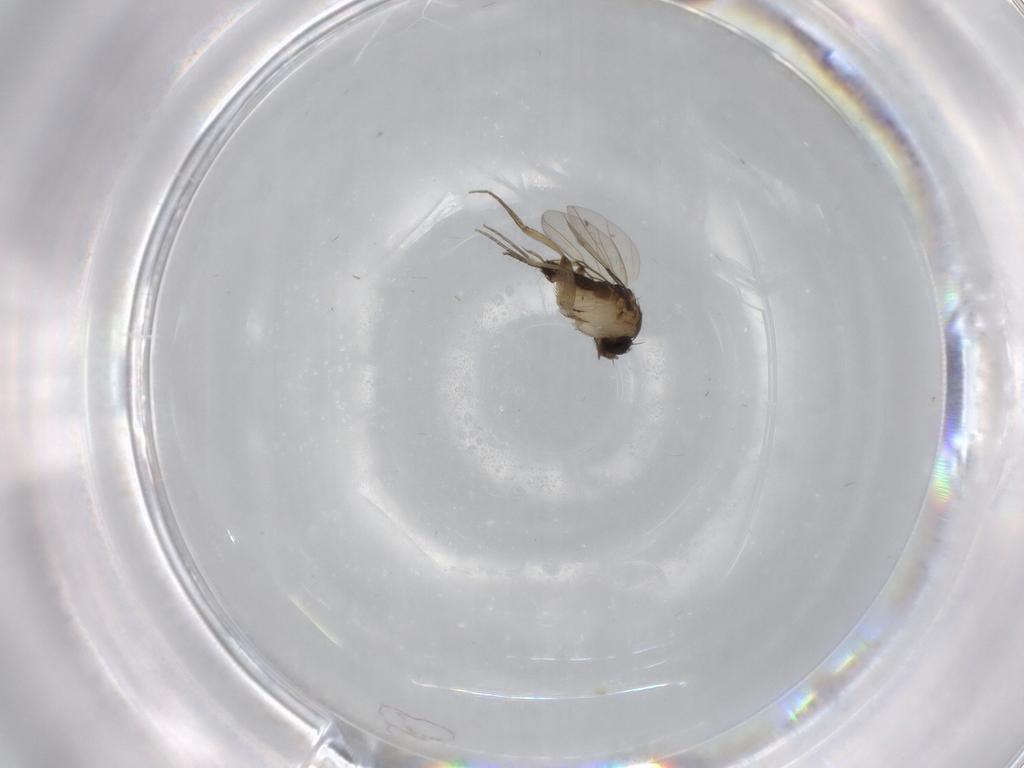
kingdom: Animalia
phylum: Arthropoda
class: Insecta
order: Diptera
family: Phoridae
